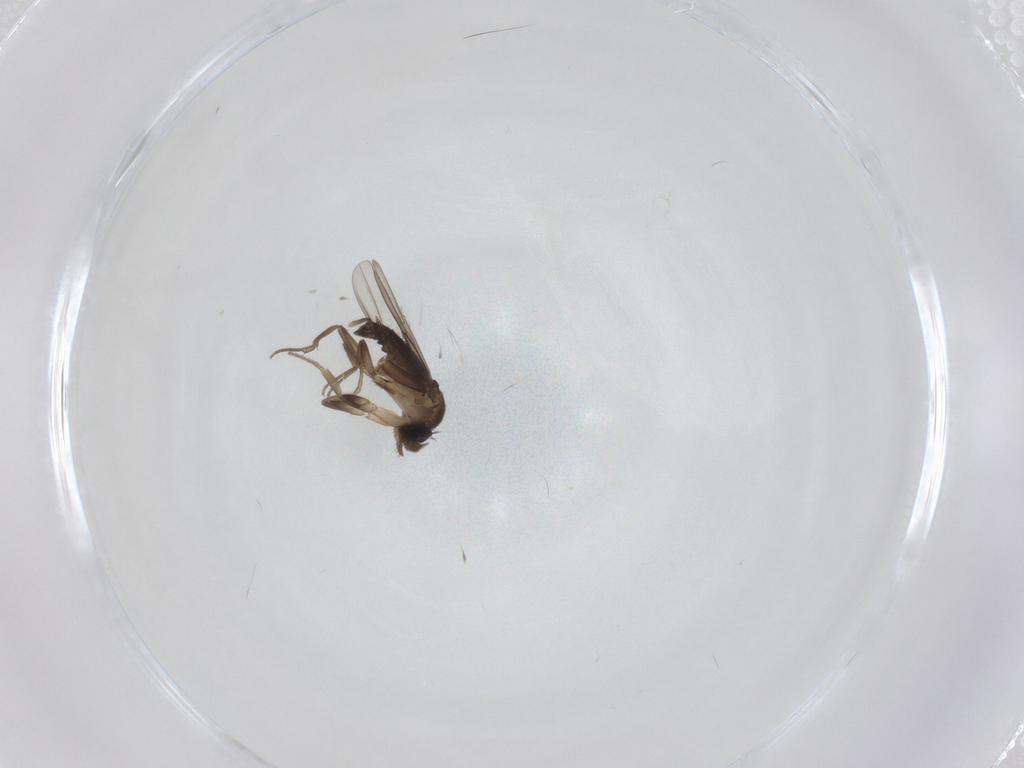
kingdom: Animalia
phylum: Arthropoda
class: Insecta
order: Diptera
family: Phoridae
